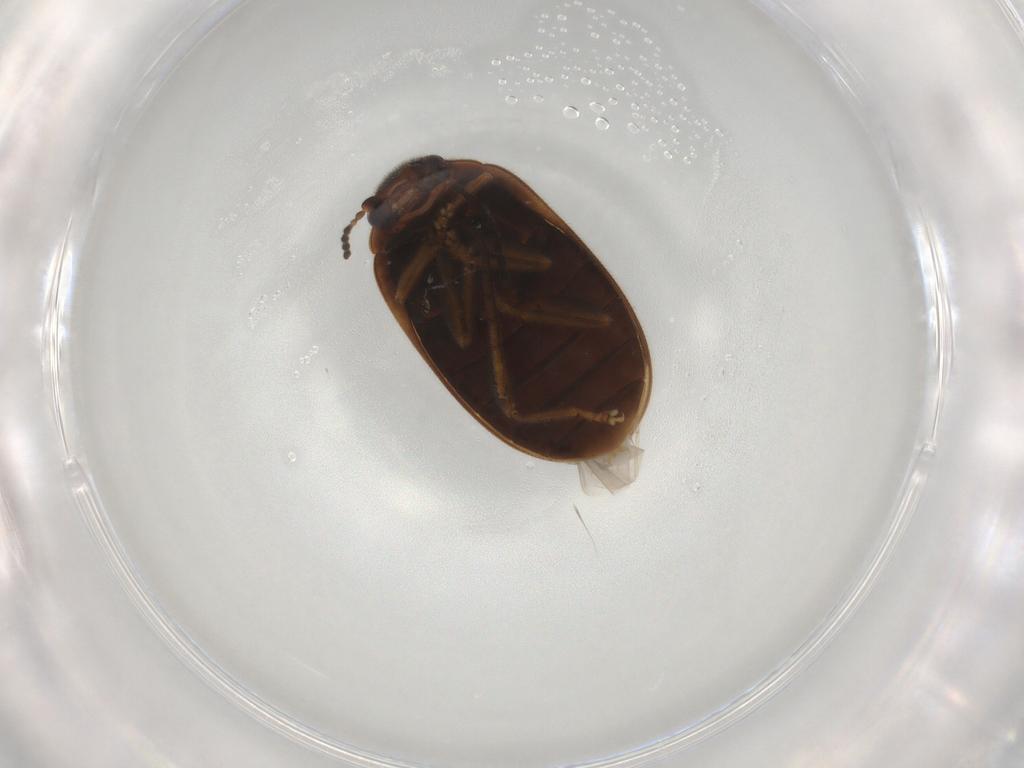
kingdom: Animalia
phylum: Arthropoda
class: Insecta
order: Coleoptera
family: Scirtidae
